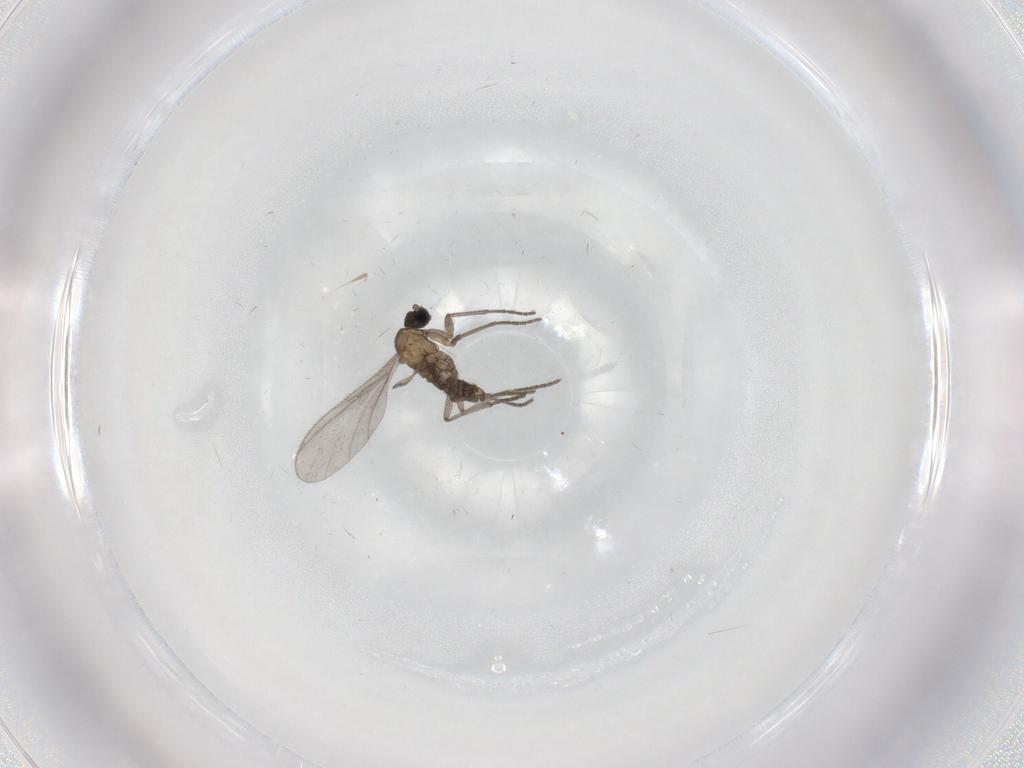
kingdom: Animalia
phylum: Arthropoda
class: Insecta
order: Diptera
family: Sciaridae
